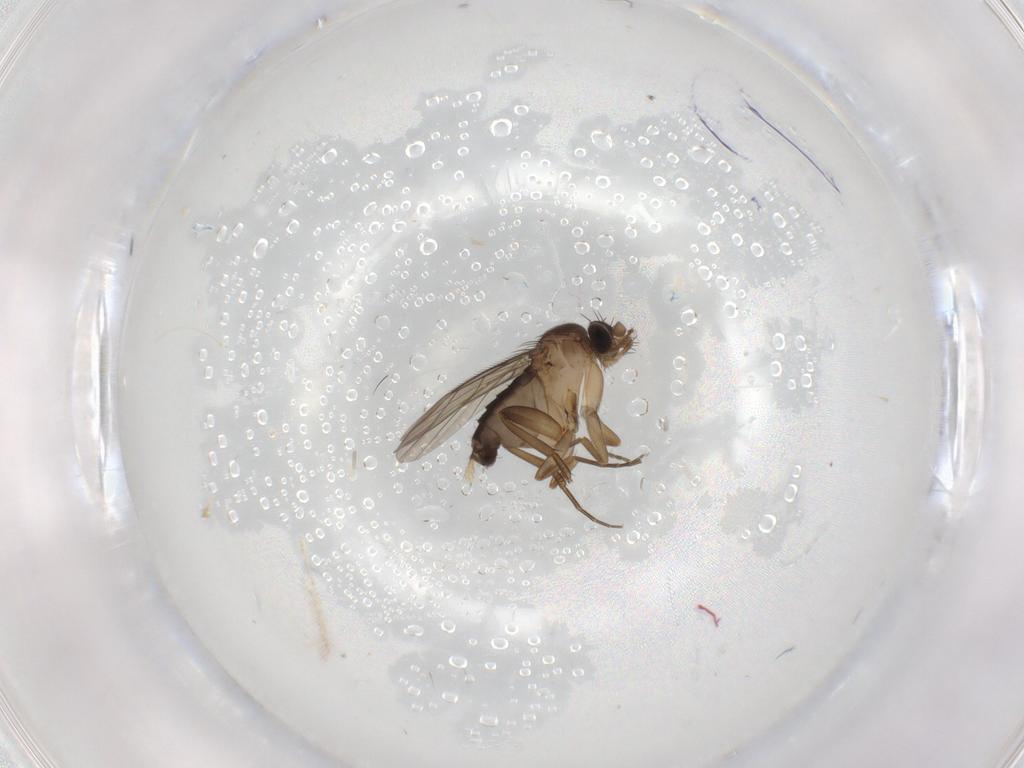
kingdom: Animalia
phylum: Arthropoda
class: Insecta
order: Diptera
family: Phoridae
